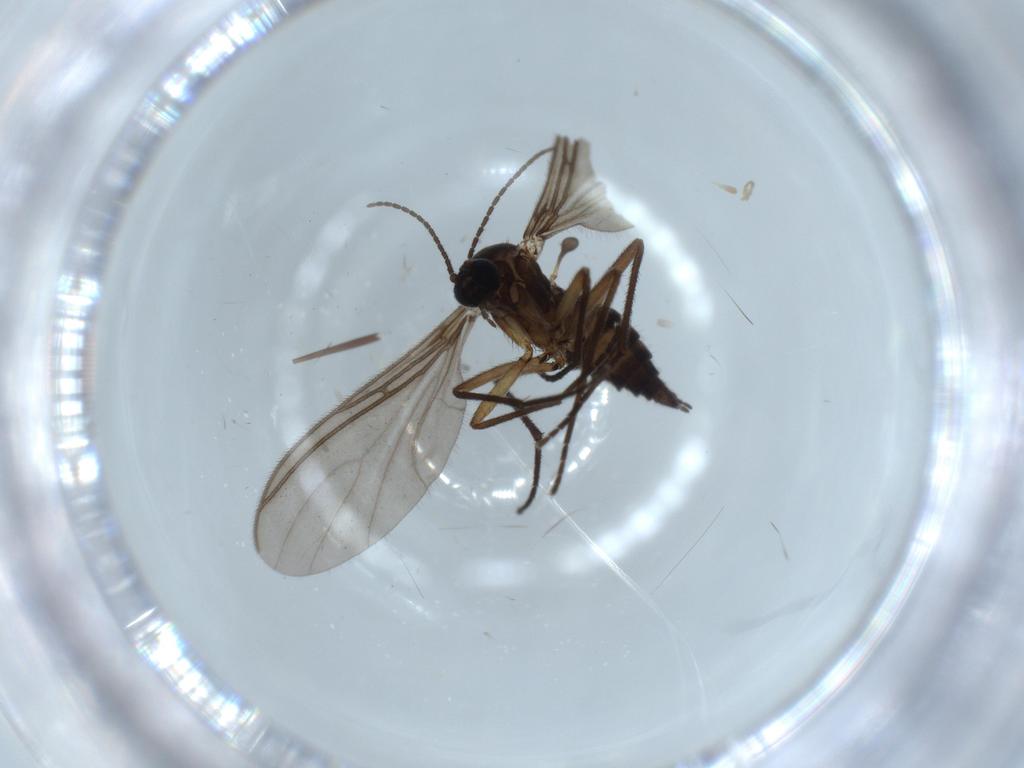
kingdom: Animalia
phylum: Arthropoda
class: Insecta
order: Diptera
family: Sciaridae
